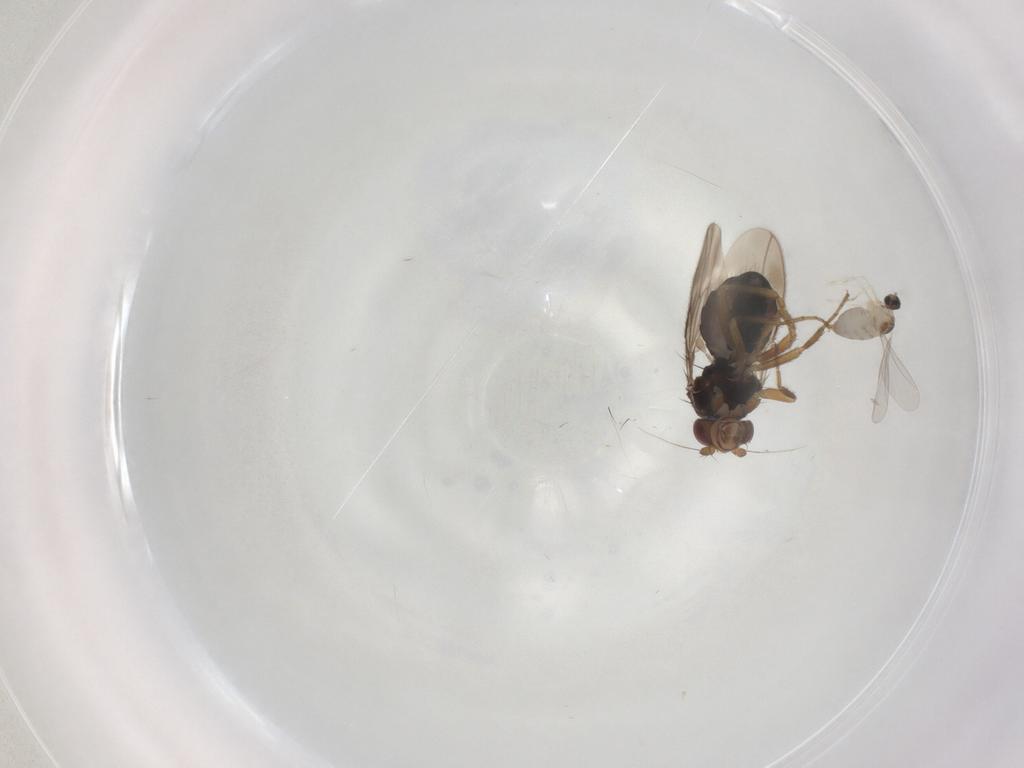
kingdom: Animalia
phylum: Arthropoda
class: Insecta
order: Diptera
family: Sphaeroceridae
